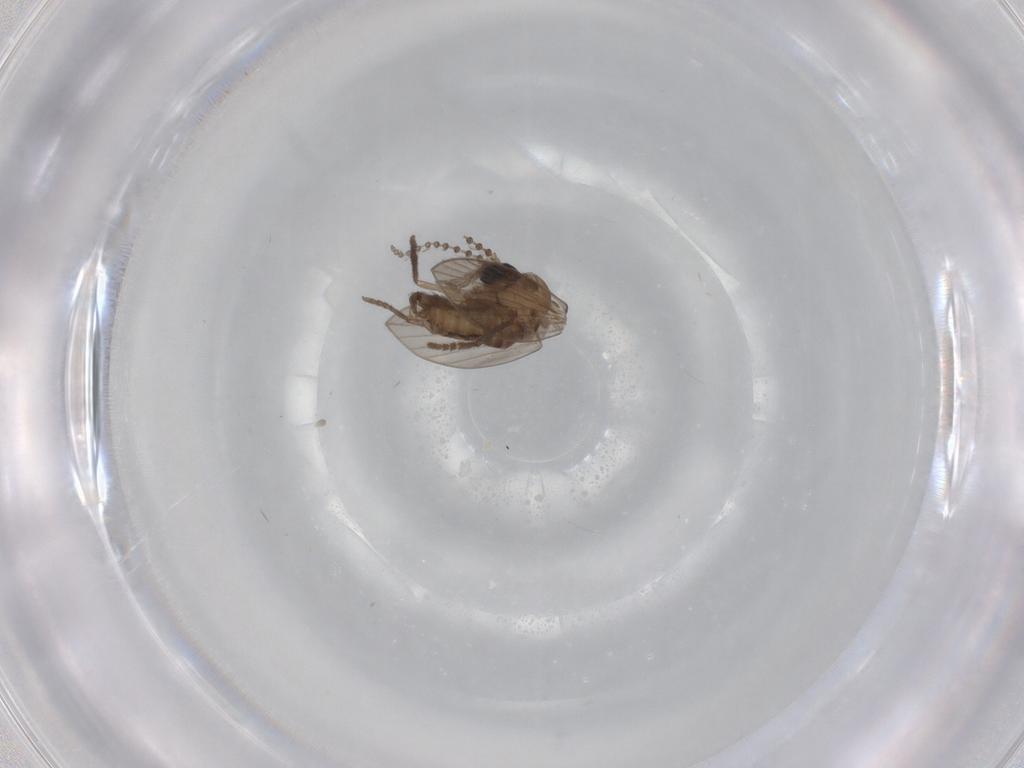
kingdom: Animalia
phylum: Arthropoda
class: Insecta
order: Diptera
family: Psychodidae
